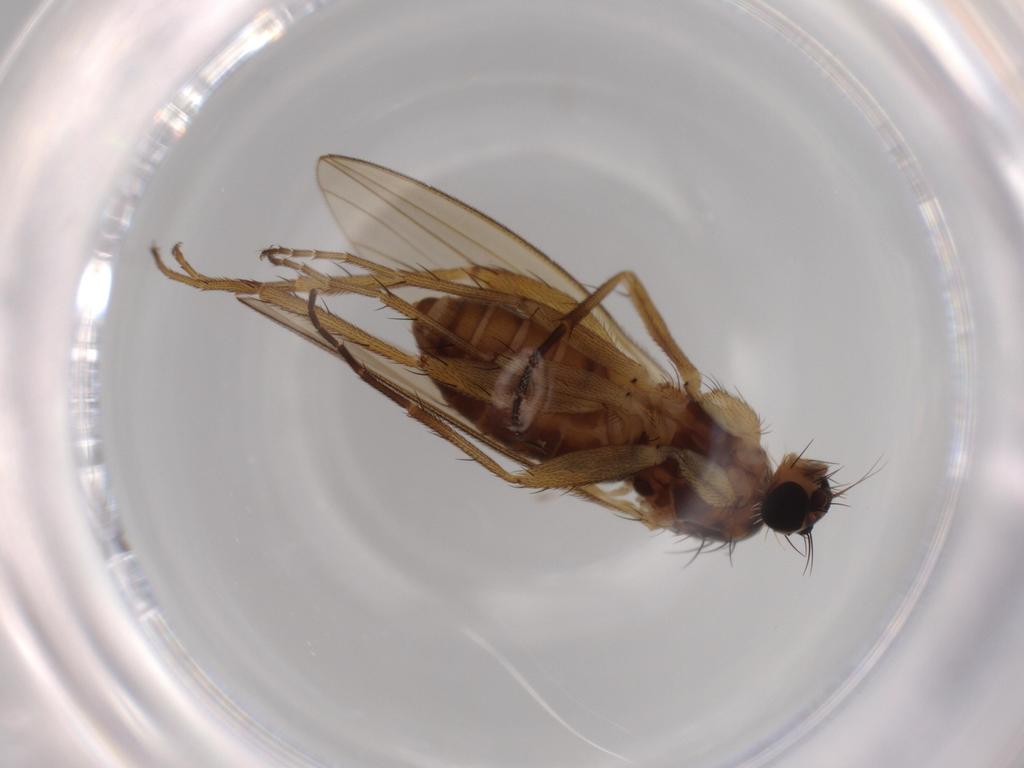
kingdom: Animalia
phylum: Arthropoda
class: Insecta
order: Diptera
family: Lonchopteridae
